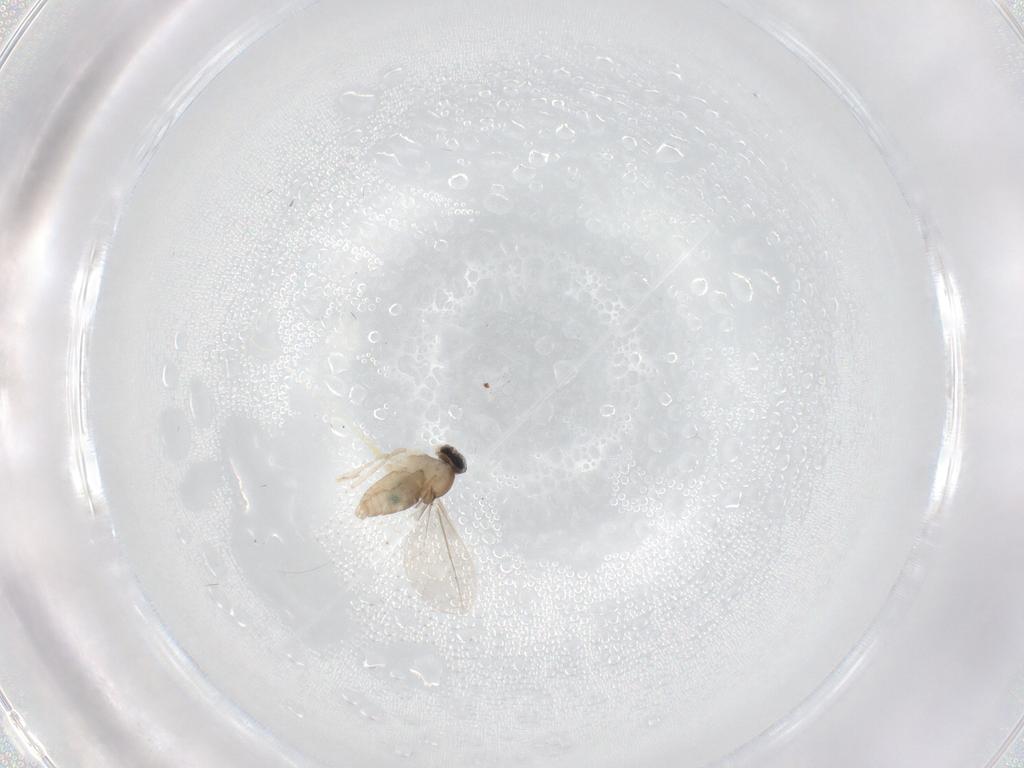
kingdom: Animalia
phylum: Arthropoda
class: Insecta
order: Diptera
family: Cecidomyiidae
